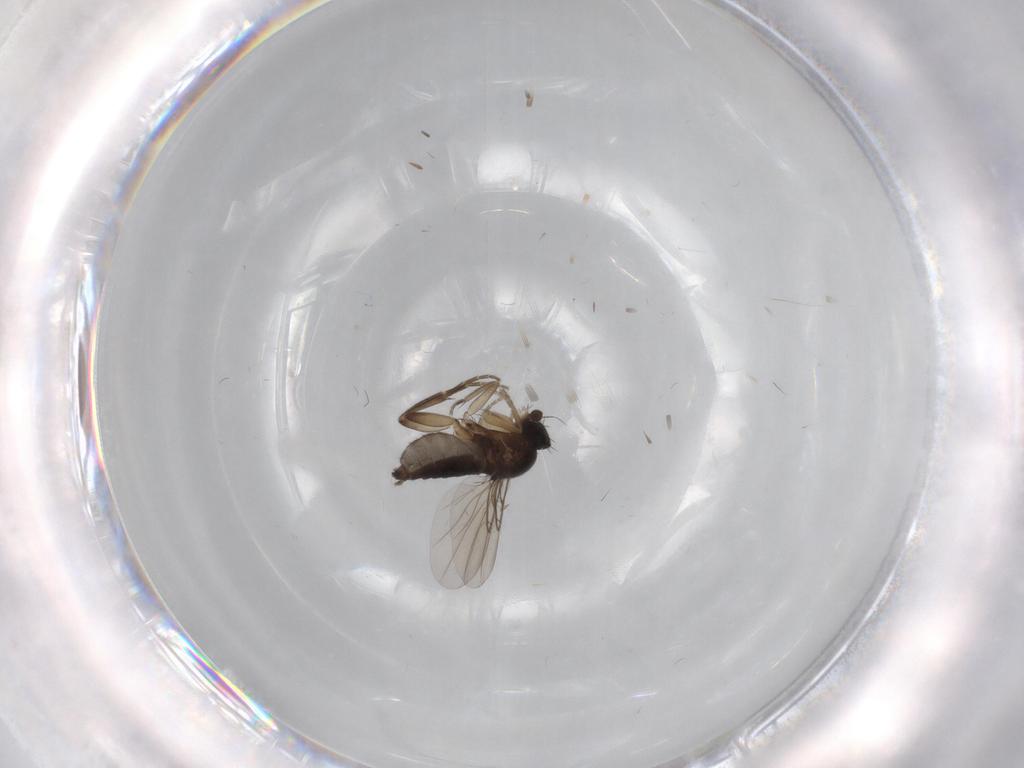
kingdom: Animalia
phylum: Arthropoda
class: Insecta
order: Diptera
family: Phoridae
